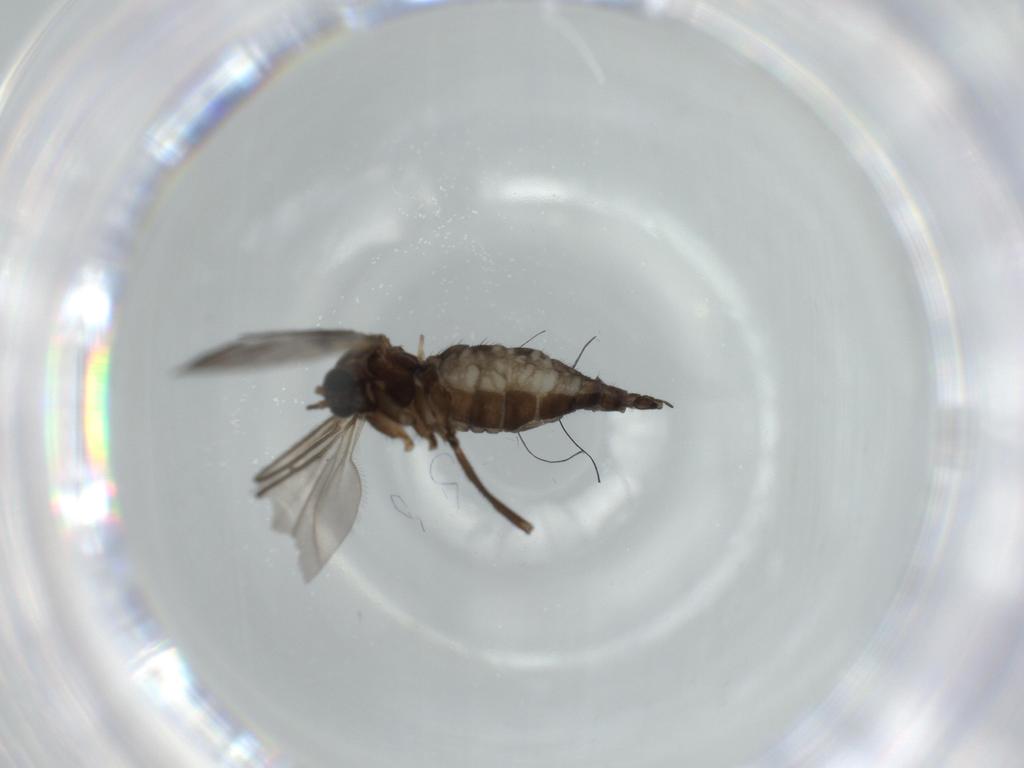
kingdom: Animalia
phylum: Arthropoda
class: Insecta
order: Diptera
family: Sciaridae
